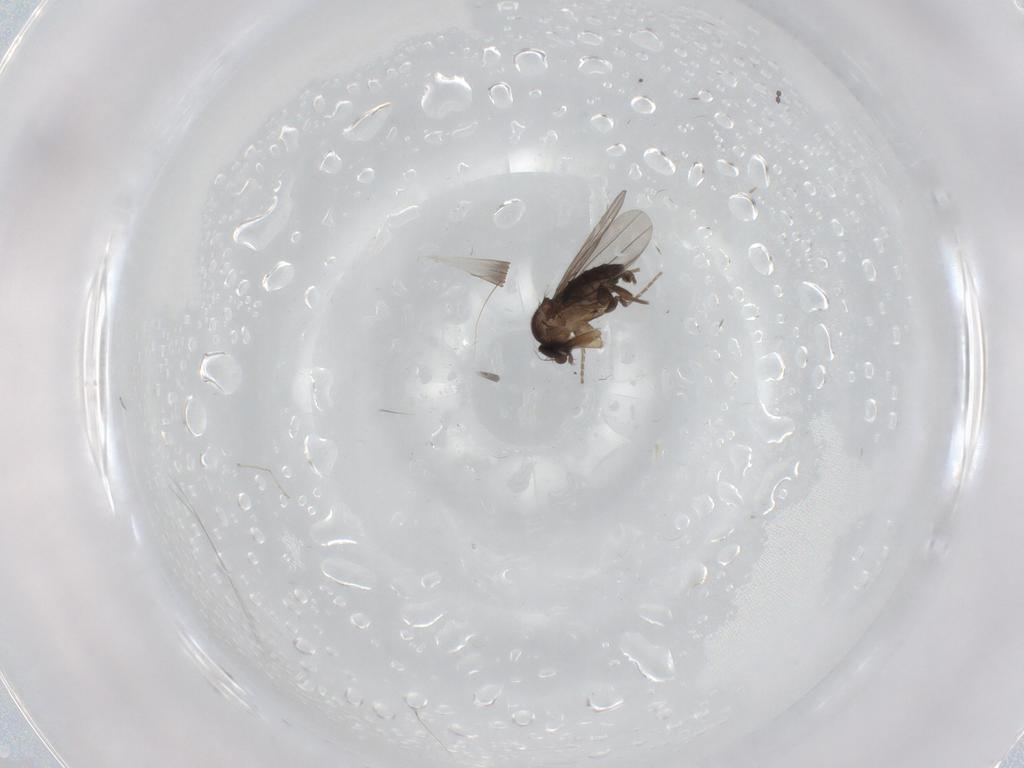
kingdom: Animalia
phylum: Arthropoda
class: Insecta
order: Diptera
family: Cecidomyiidae
